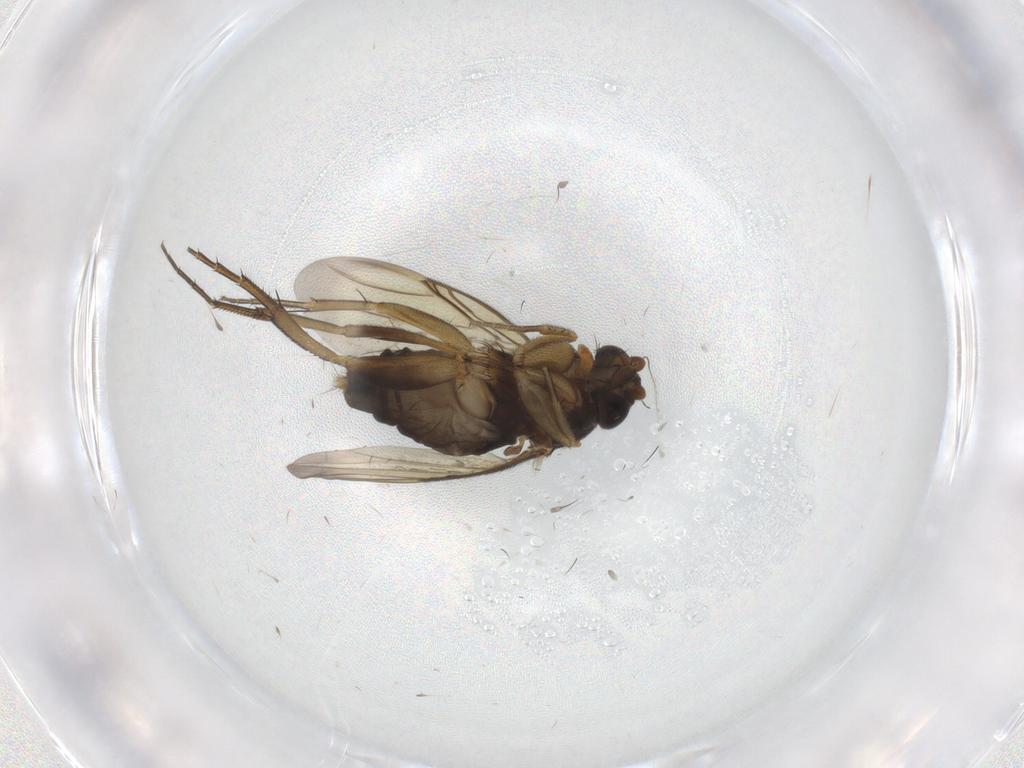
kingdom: Animalia
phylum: Arthropoda
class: Insecta
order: Diptera
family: Phoridae
